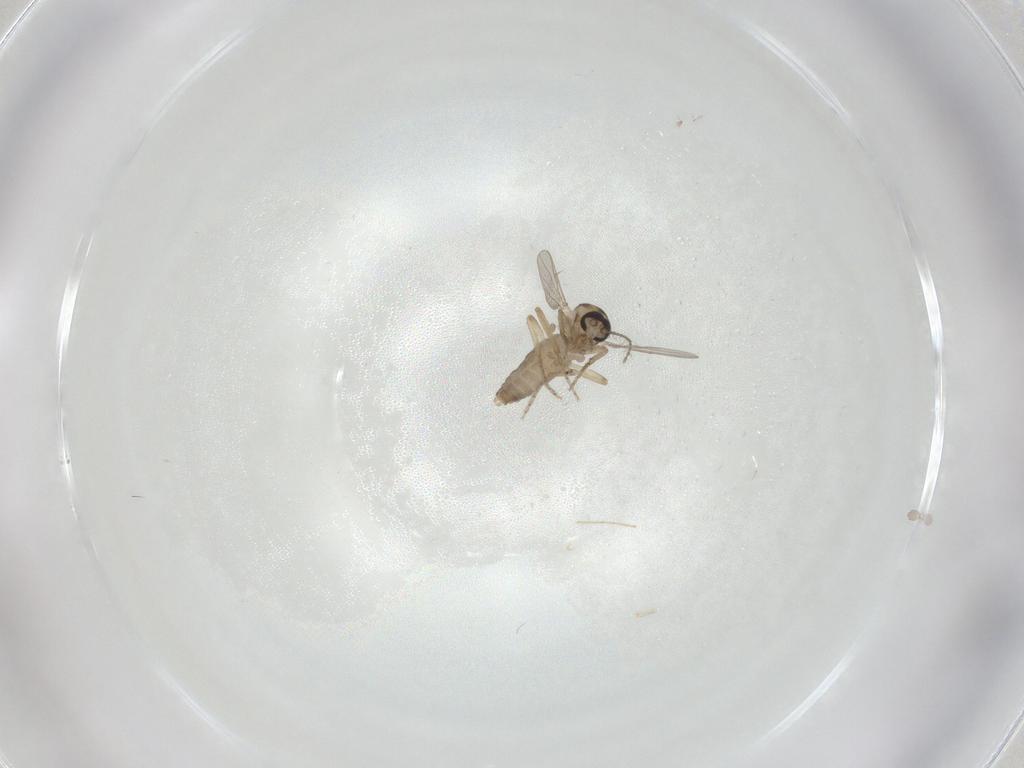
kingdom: Animalia
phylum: Arthropoda
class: Insecta
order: Diptera
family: Ceratopogonidae
